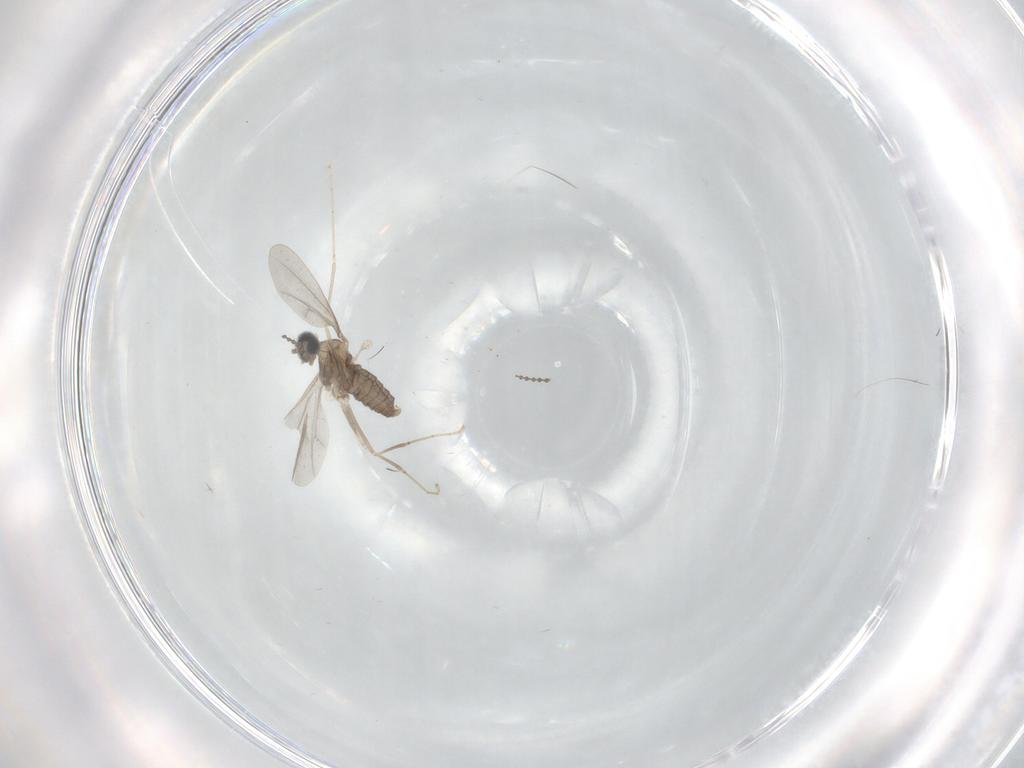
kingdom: Animalia
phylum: Arthropoda
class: Insecta
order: Diptera
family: Cecidomyiidae
